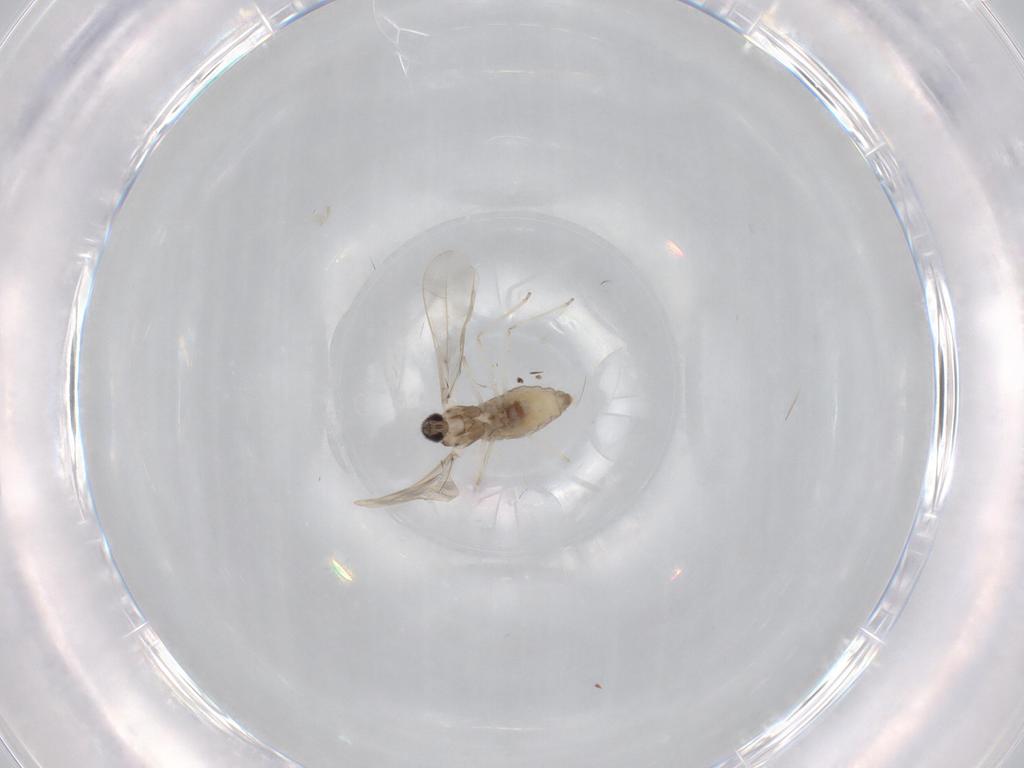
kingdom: Animalia
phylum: Arthropoda
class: Insecta
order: Diptera
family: Cecidomyiidae
